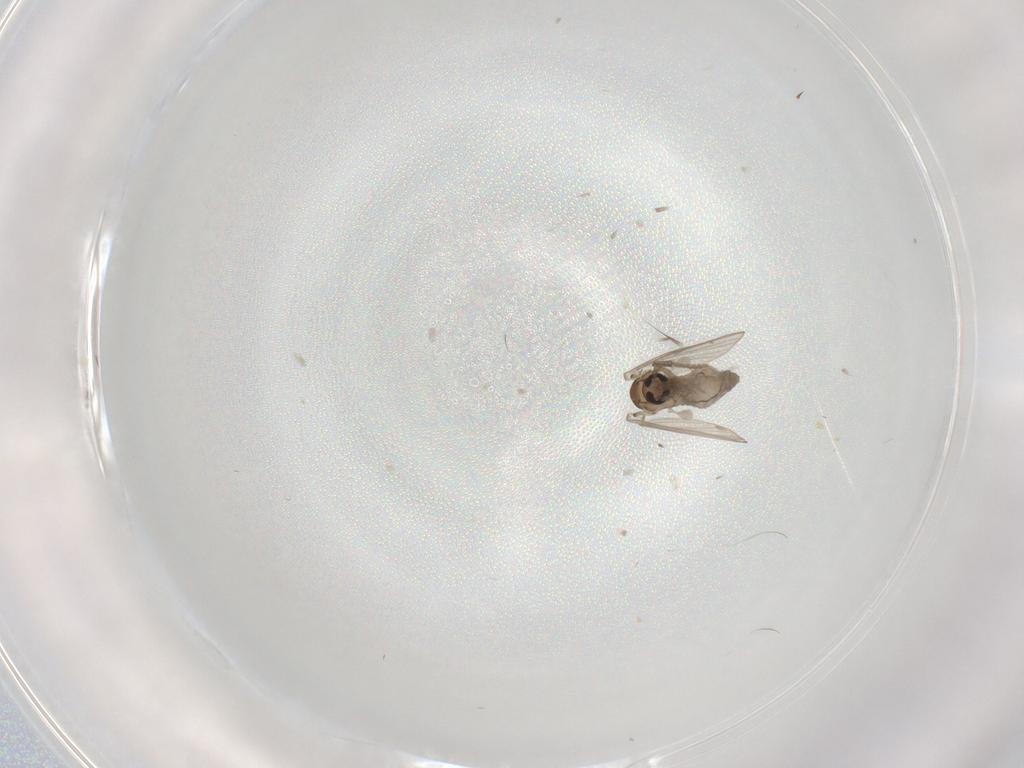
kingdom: Animalia
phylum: Arthropoda
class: Insecta
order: Diptera
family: Psychodidae
